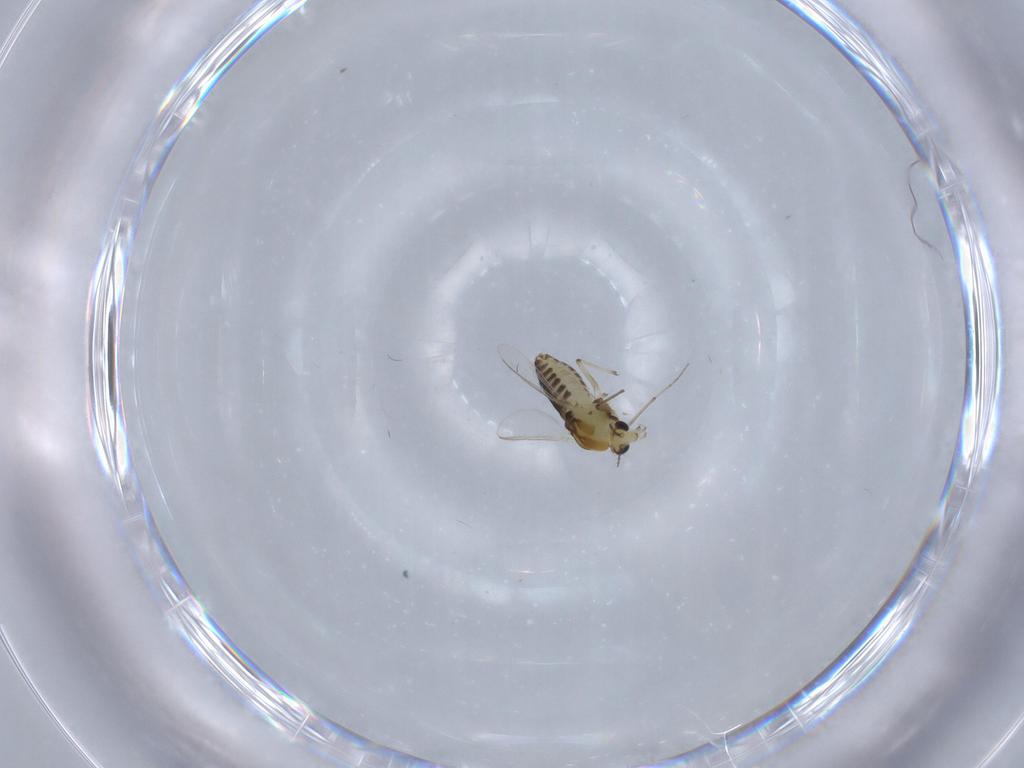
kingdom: Animalia
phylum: Arthropoda
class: Insecta
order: Diptera
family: Chironomidae
